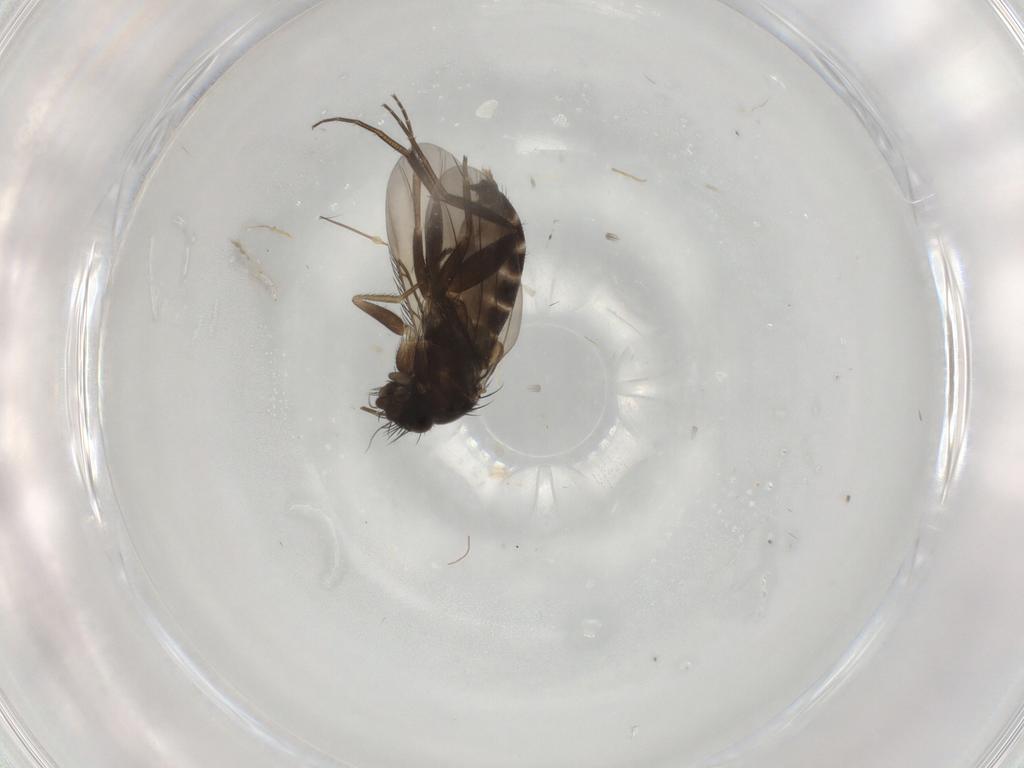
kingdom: Animalia
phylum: Arthropoda
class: Insecta
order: Diptera
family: Phoridae
